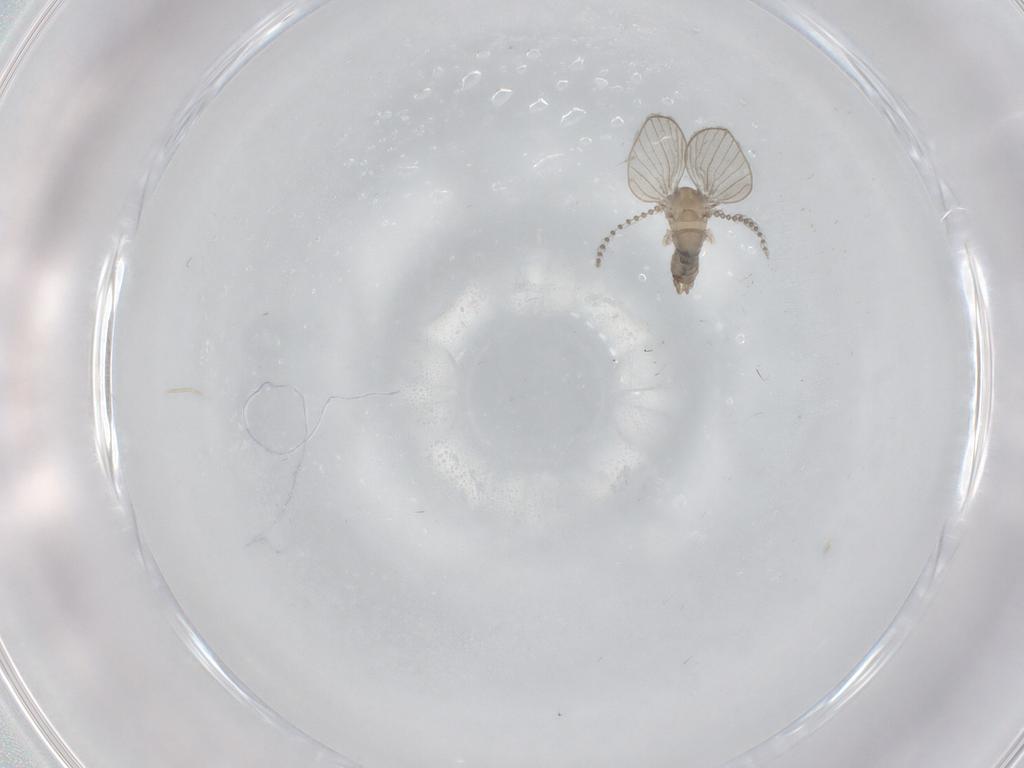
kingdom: Animalia
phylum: Arthropoda
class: Insecta
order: Diptera
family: Psychodidae
